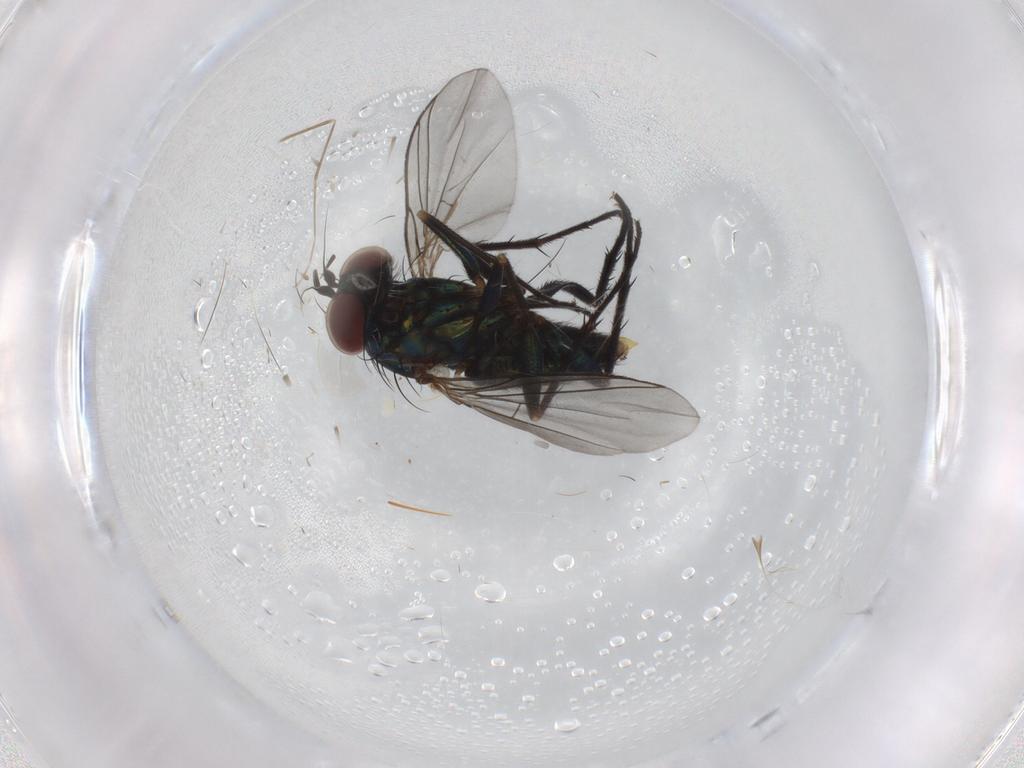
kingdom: Animalia
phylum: Arthropoda
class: Insecta
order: Diptera
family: Dolichopodidae
